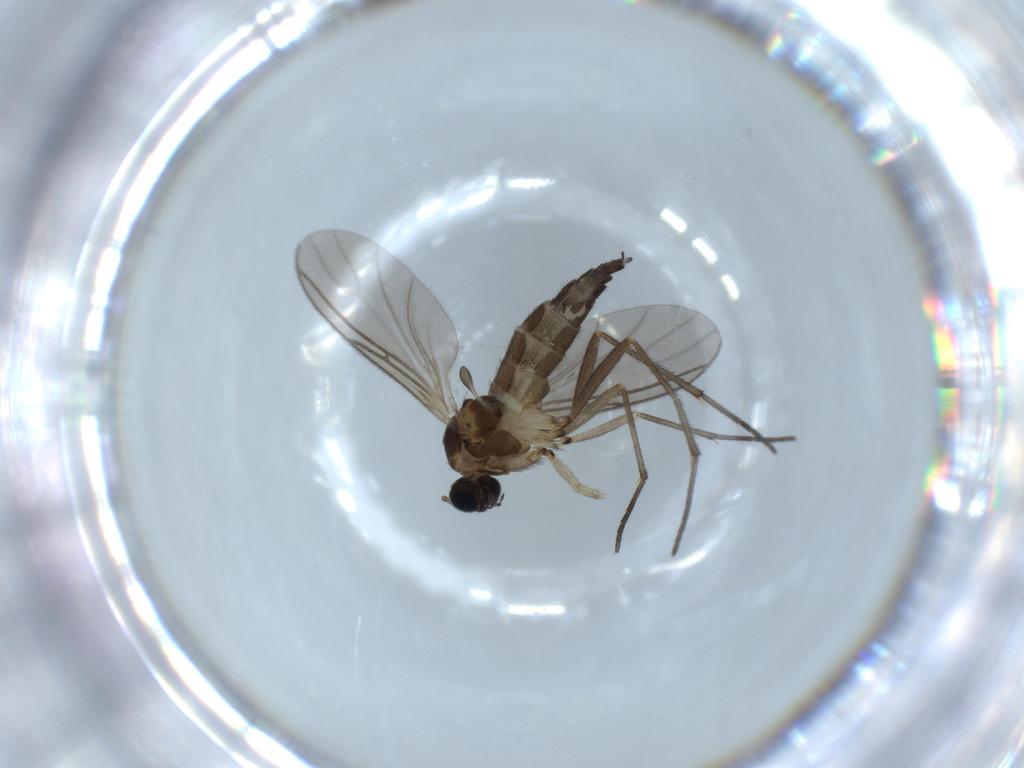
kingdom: Animalia
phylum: Arthropoda
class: Insecta
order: Diptera
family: Sciaridae
